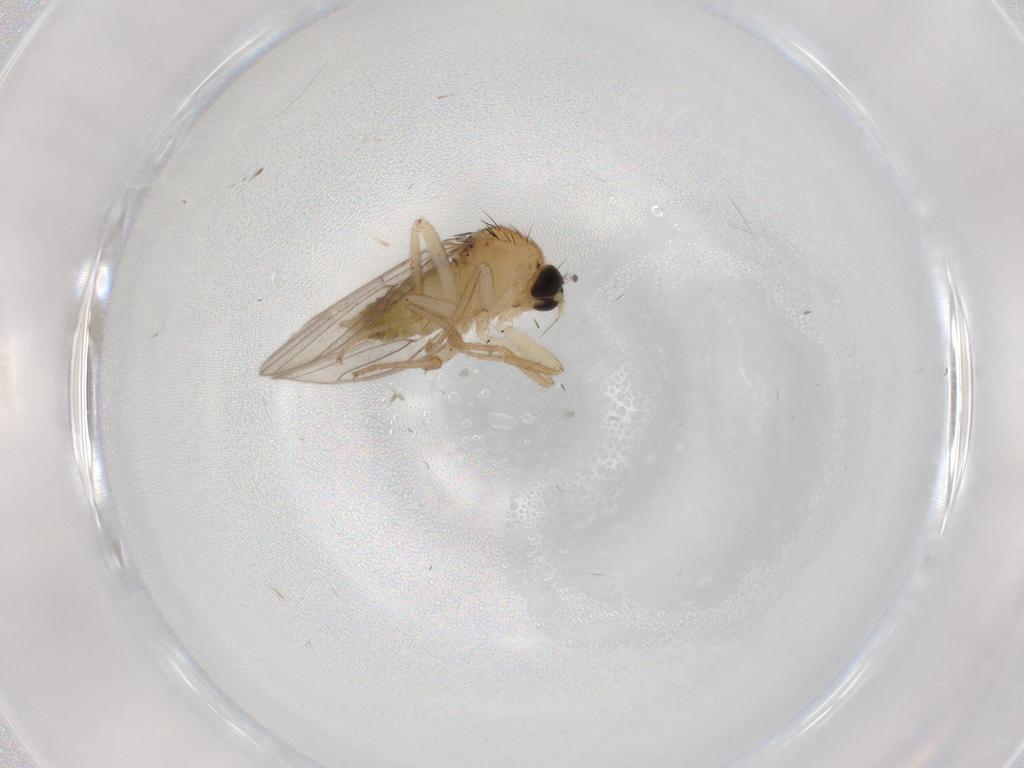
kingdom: Animalia
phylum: Arthropoda
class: Insecta
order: Diptera
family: Hybotidae
